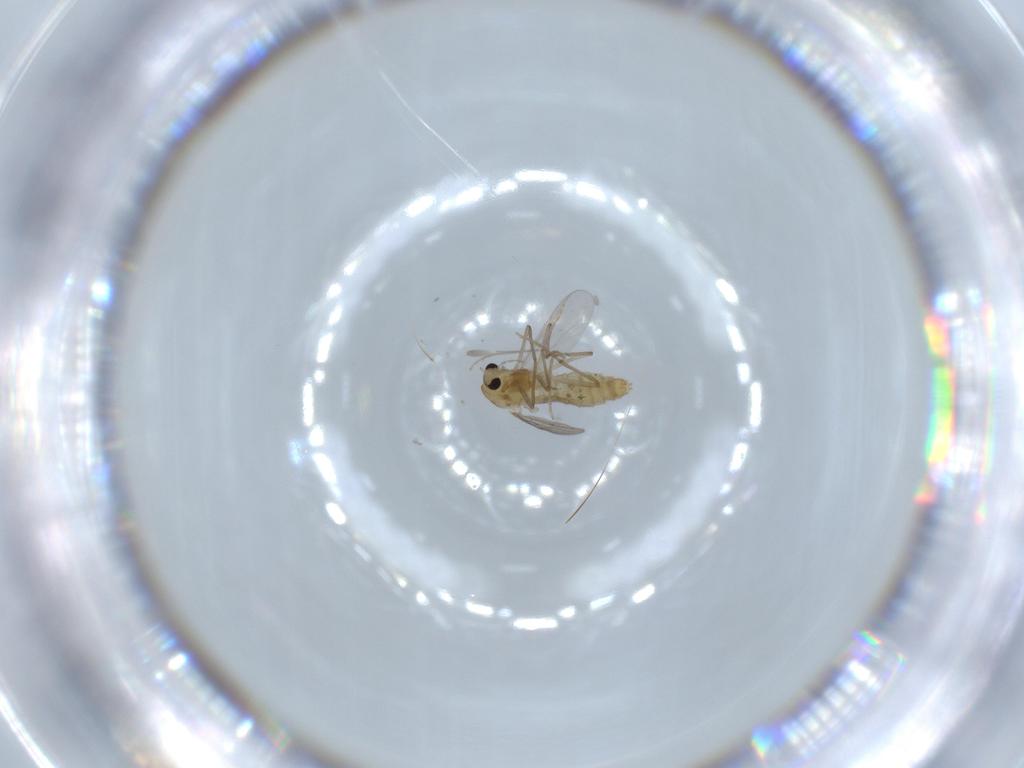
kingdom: Animalia
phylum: Arthropoda
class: Insecta
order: Diptera
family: Chironomidae
